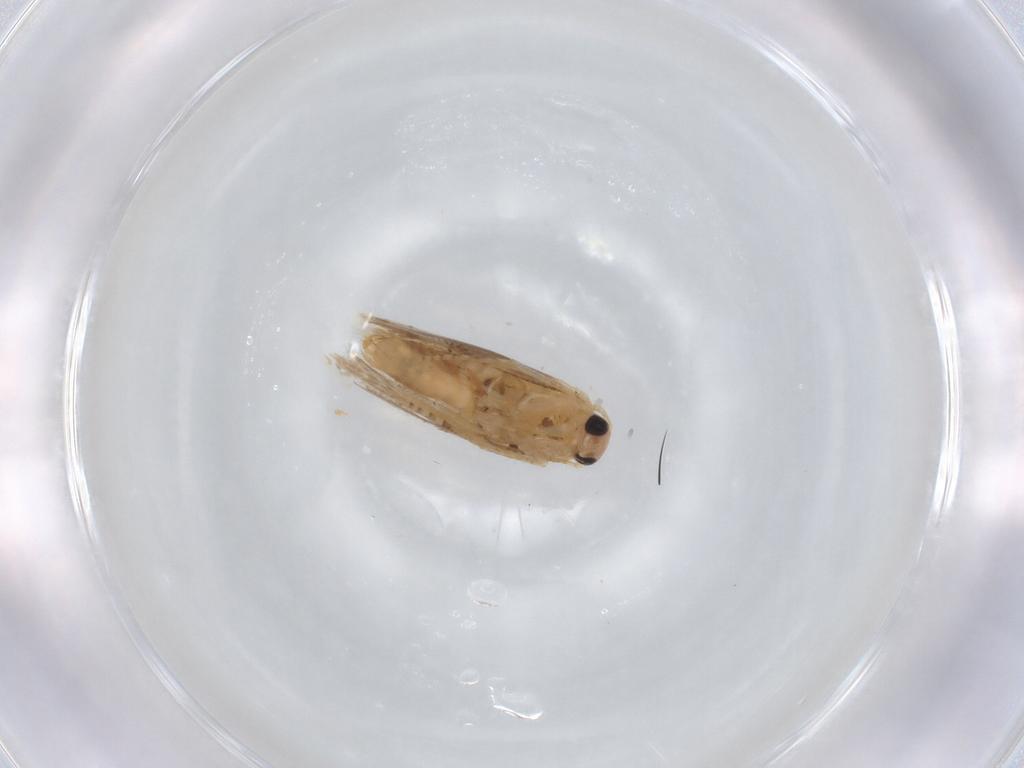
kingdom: Animalia
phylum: Arthropoda
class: Insecta
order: Lepidoptera
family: Bucculatricidae
